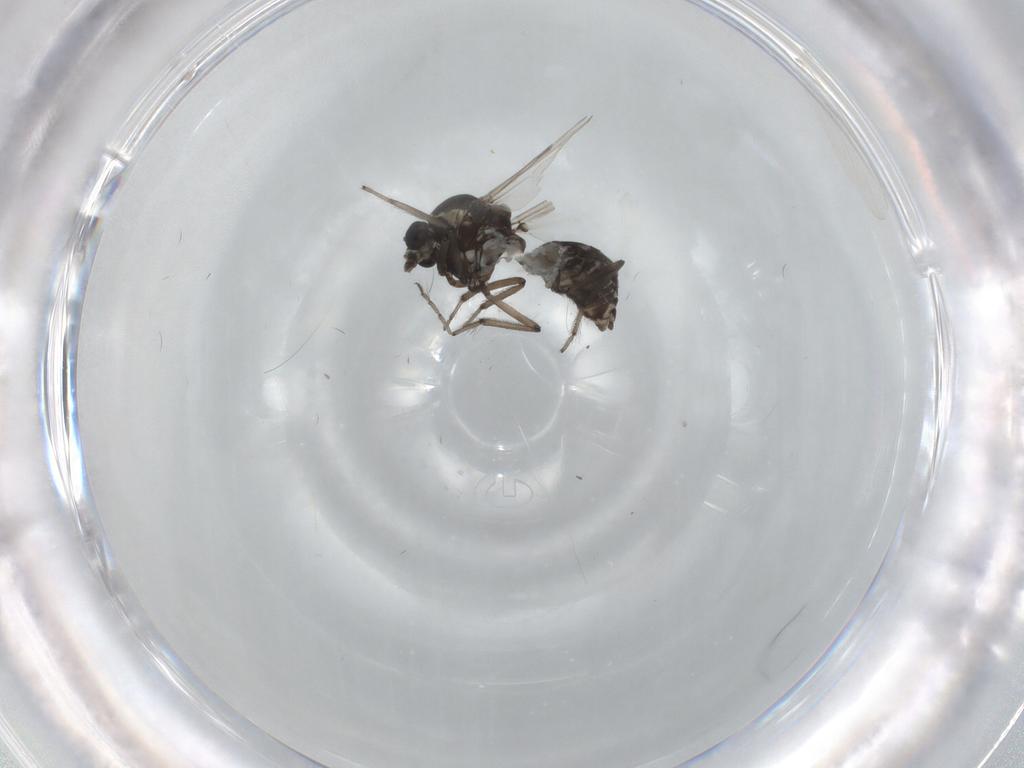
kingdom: Animalia
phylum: Arthropoda
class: Insecta
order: Diptera
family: Ceratopogonidae
